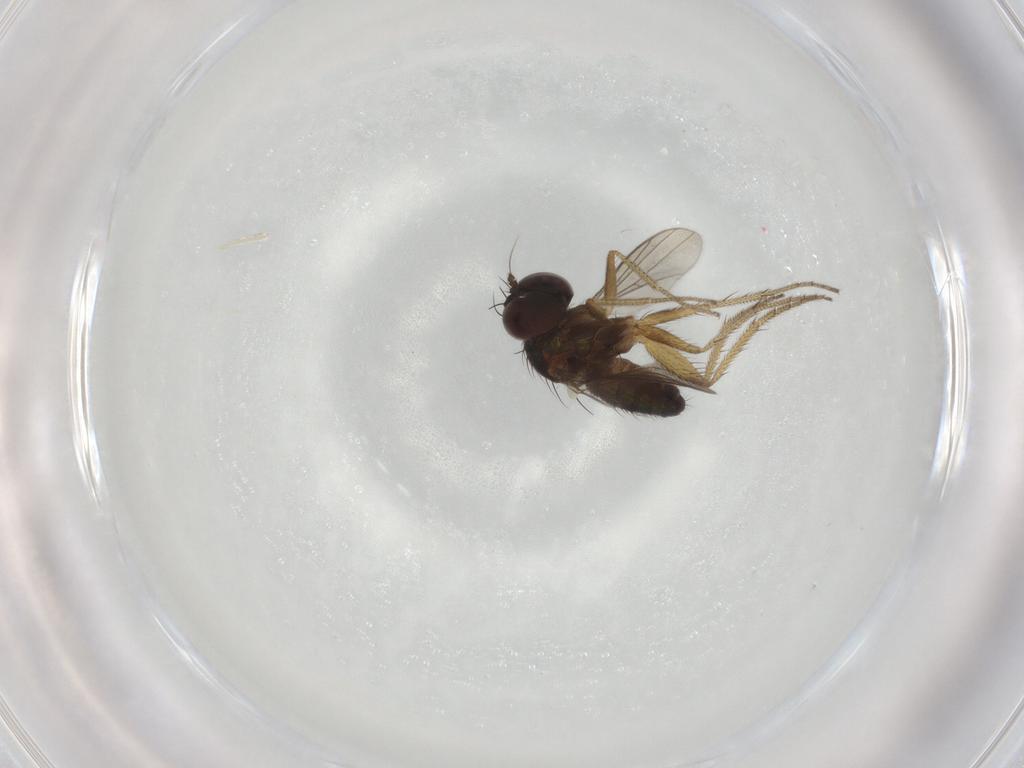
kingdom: Animalia
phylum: Arthropoda
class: Insecta
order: Diptera
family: Dolichopodidae
